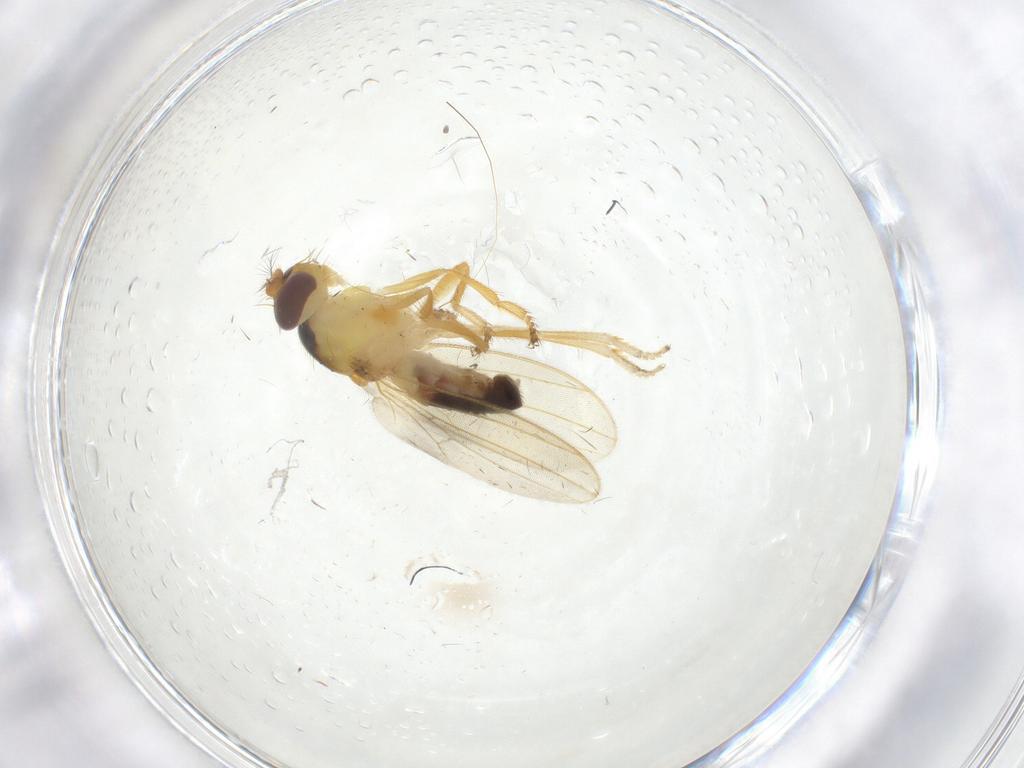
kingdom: Animalia
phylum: Arthropoda
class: Insecta
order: Diptera
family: Periscelididae
